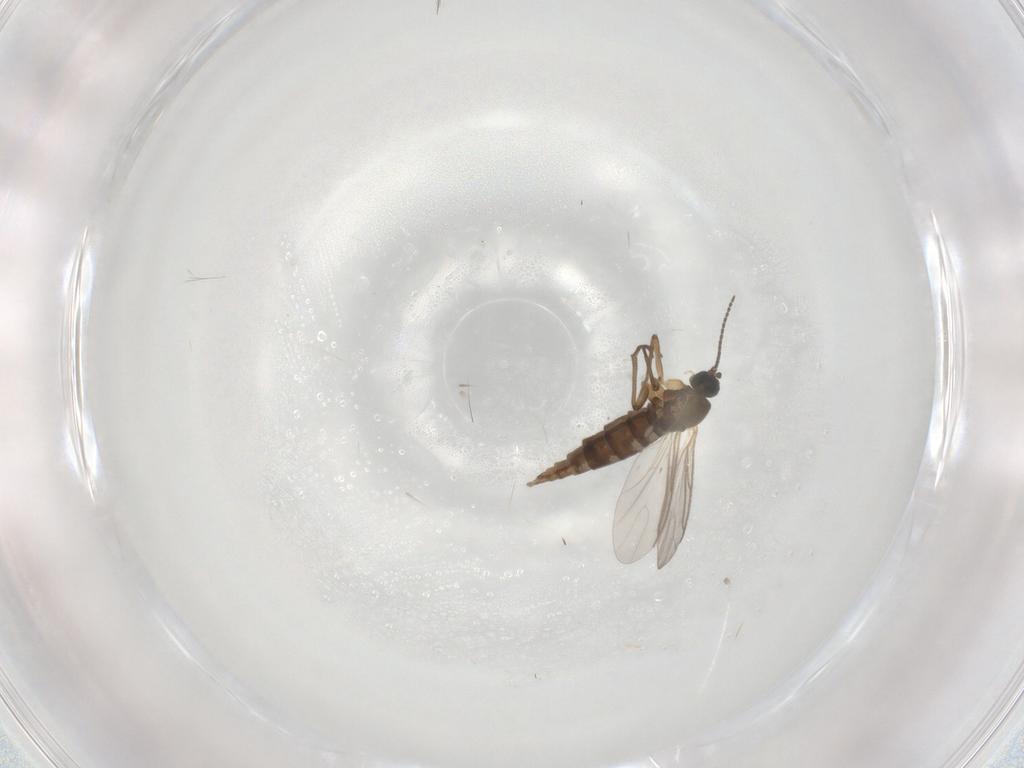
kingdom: Animalia
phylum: Arthropoda
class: Insecta
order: Diptera
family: Sciaridae
